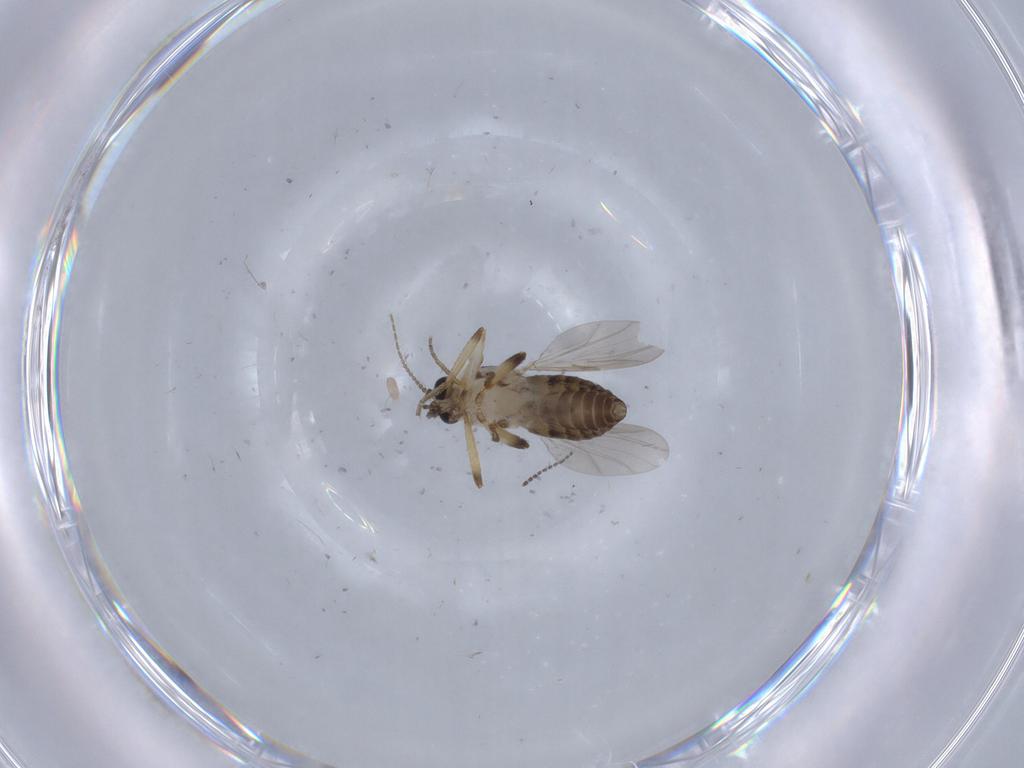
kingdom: Animalia
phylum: Arthropoda
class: Insecta
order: Diptera
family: Ceratopogonidae
